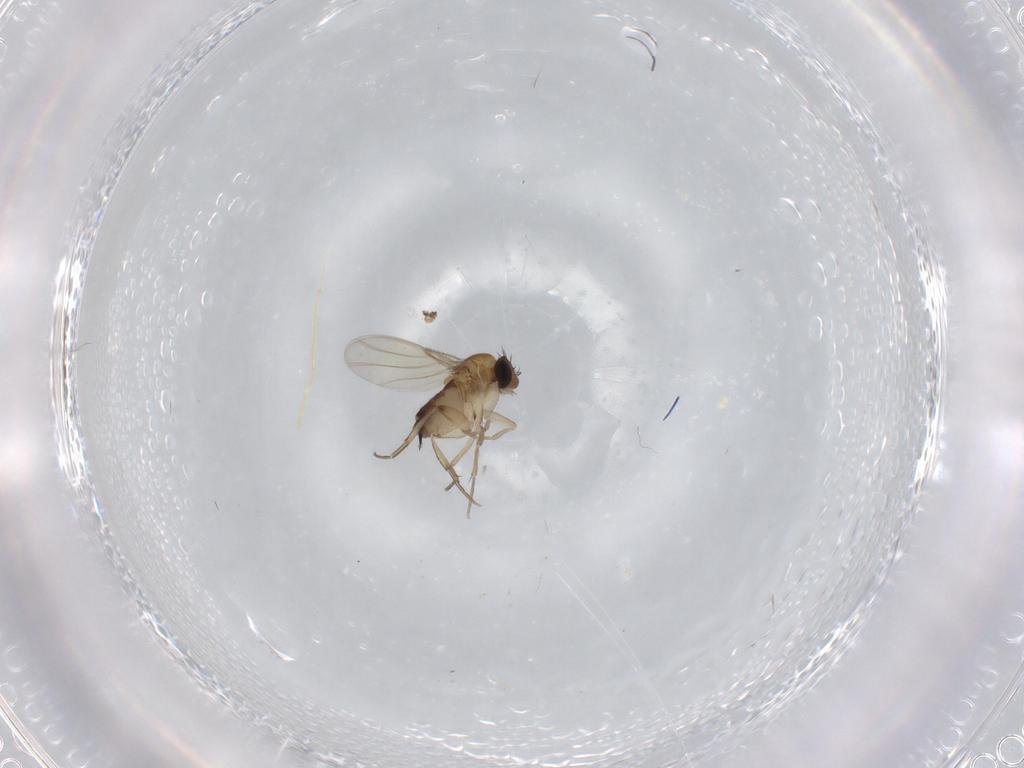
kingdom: Animalia
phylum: Arthropoda
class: Insecta
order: Diptera
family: Phoridae
